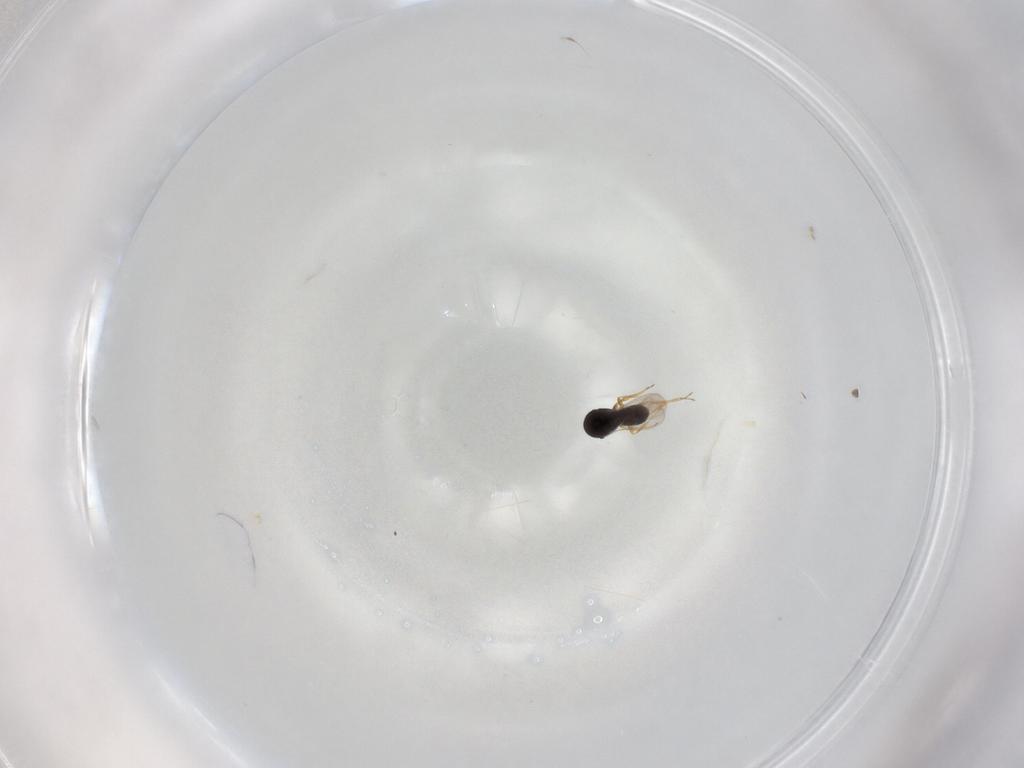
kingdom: Animalia
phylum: Arthropoda
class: Insecta
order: Hymenoptera
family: Scelionidae
